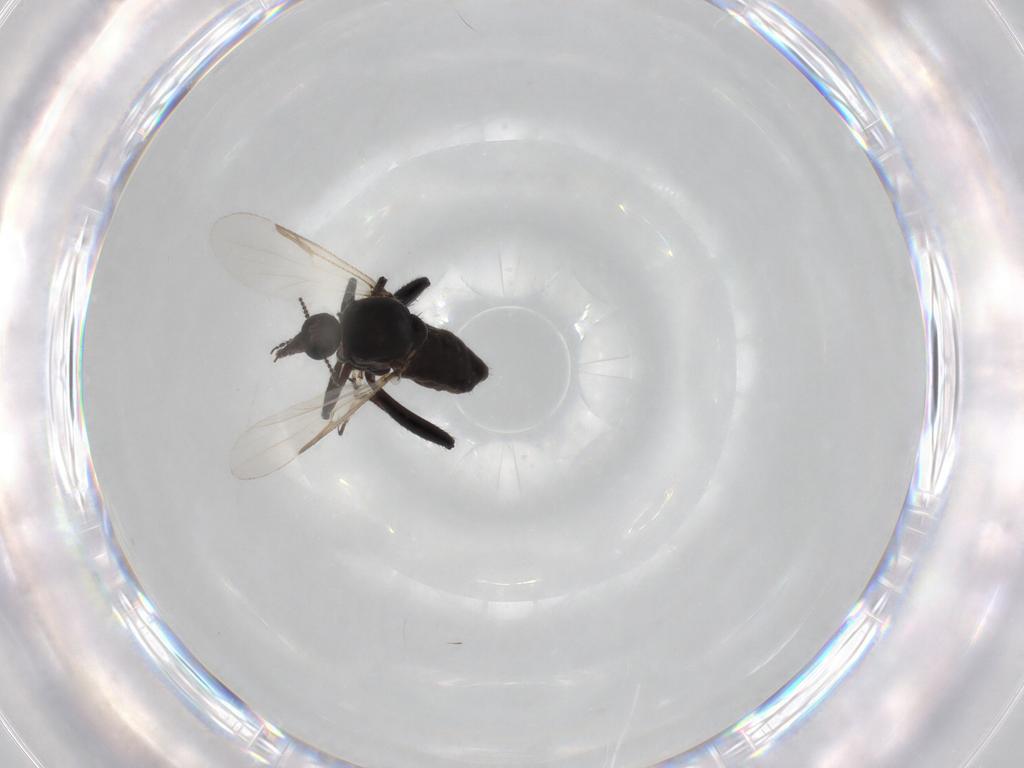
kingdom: Animalia
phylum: Arthropoda
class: Insecta
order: Diptera
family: Ceratopogonidae
